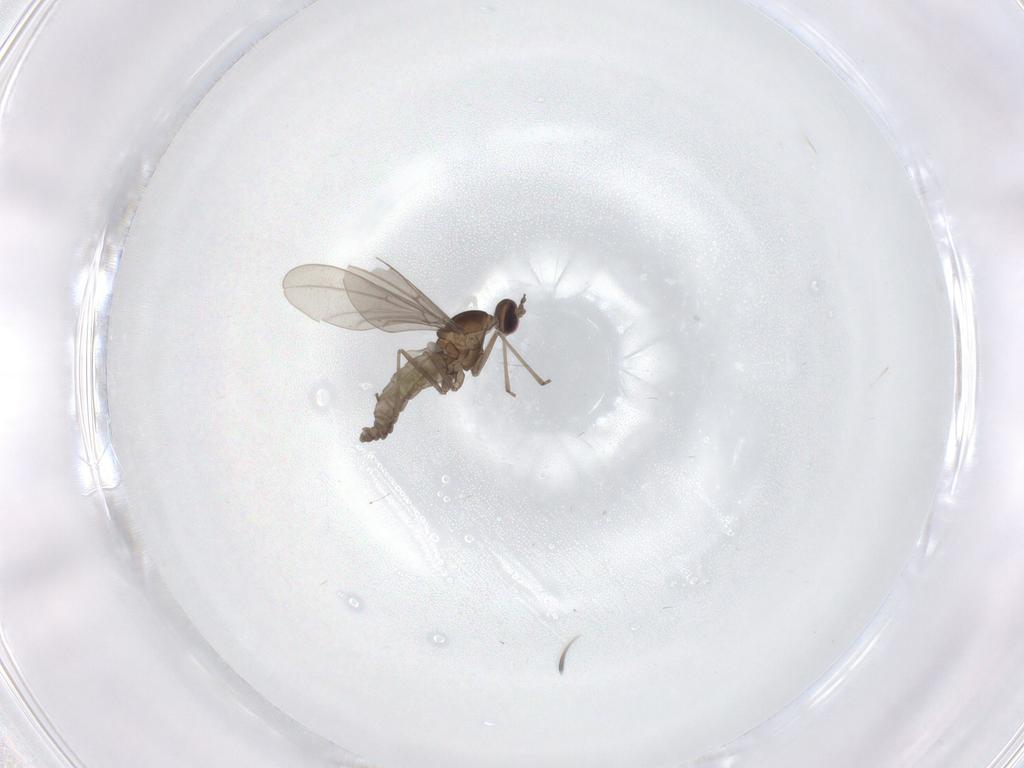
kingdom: Animalia
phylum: Arthropoda
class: Insecta
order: Diptera
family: Cecidomyiidae
